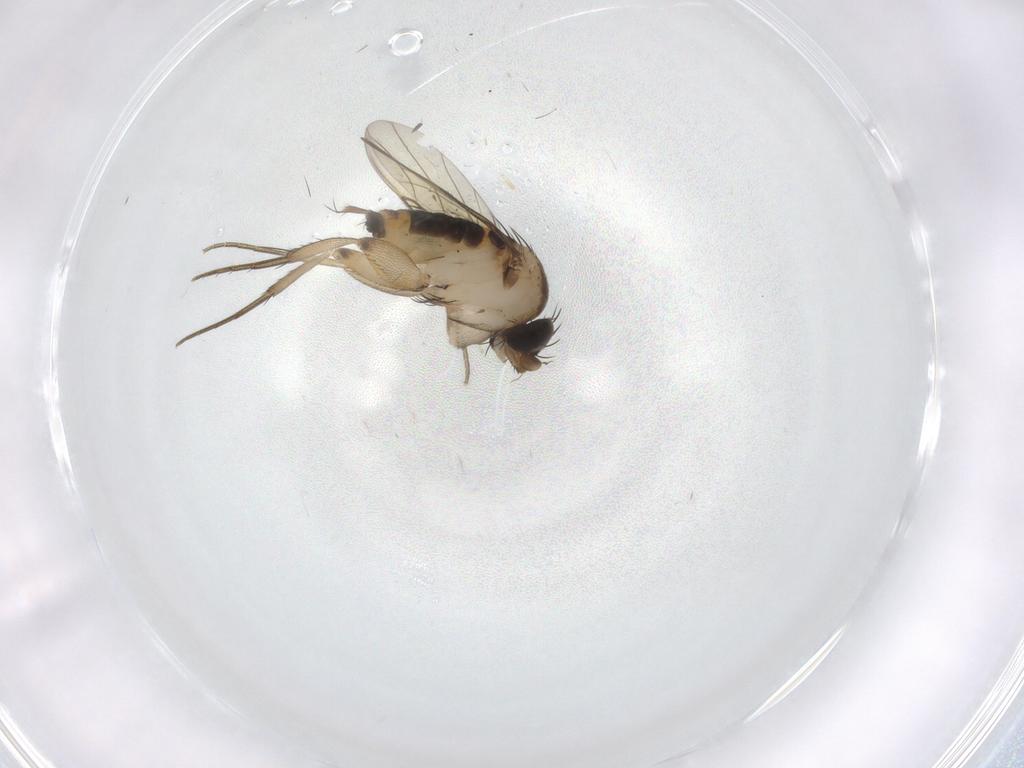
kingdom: Animalia
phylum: Arthropoda
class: Insecta
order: Diptera
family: Phoridae
